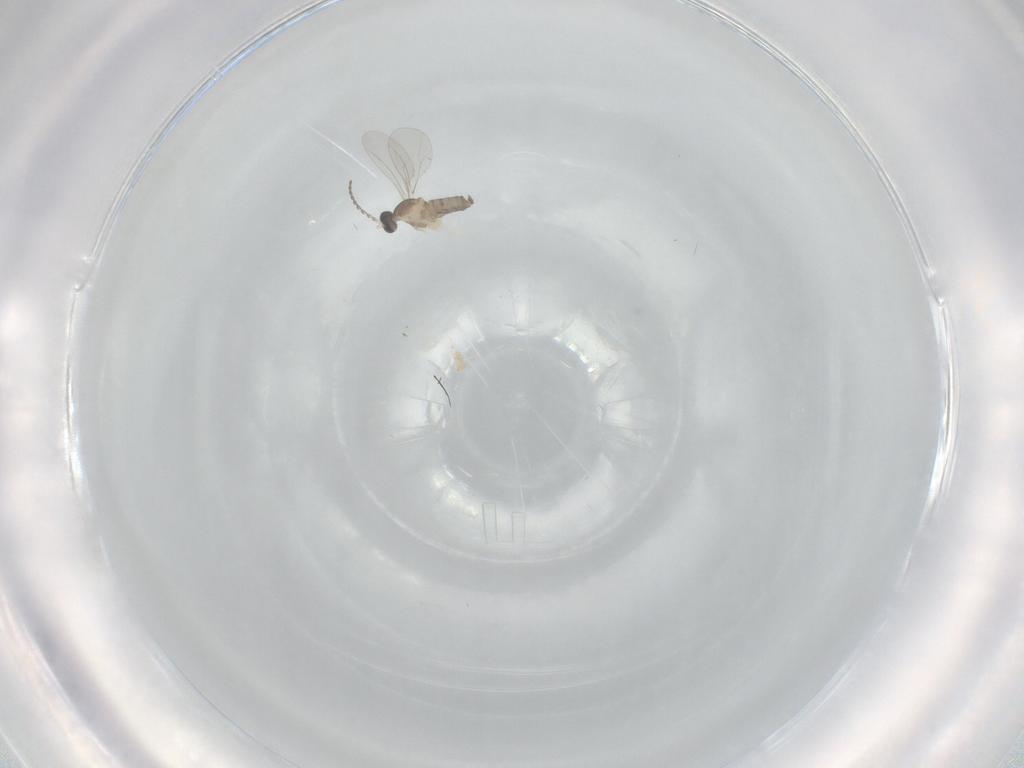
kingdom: Animalia
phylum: Arthropoda
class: Insecta
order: Diptera
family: Cecidomyiidae
